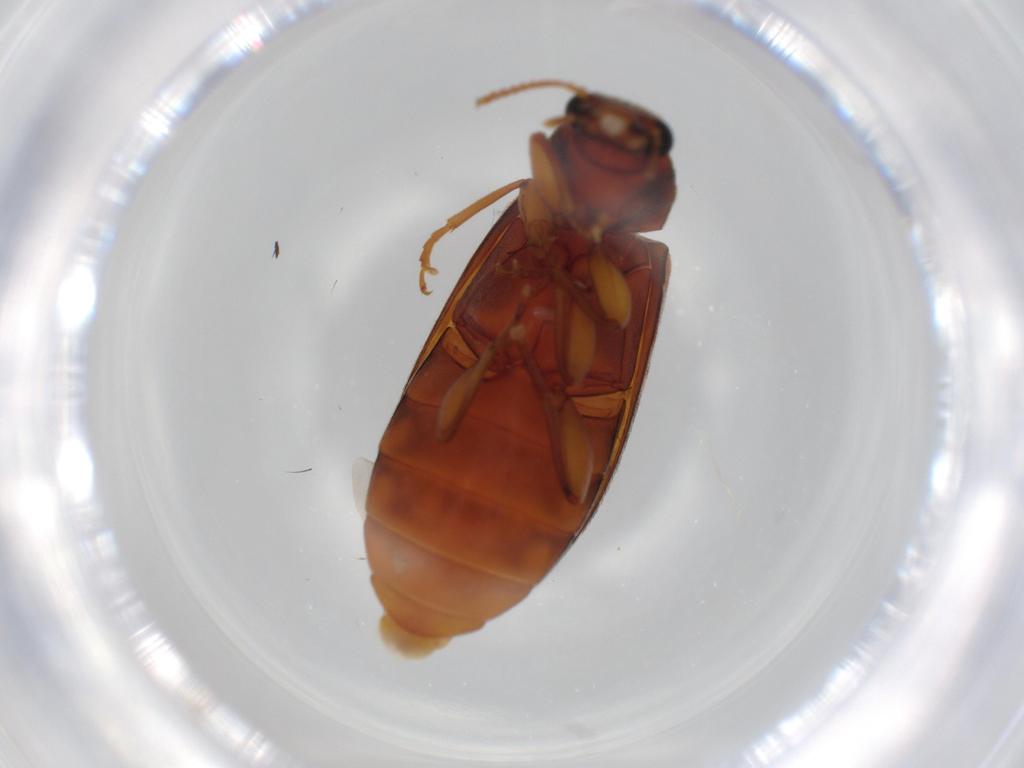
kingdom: Animalia
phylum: Arthropoda
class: Insecta
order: Coleoptera
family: Mycteridae
